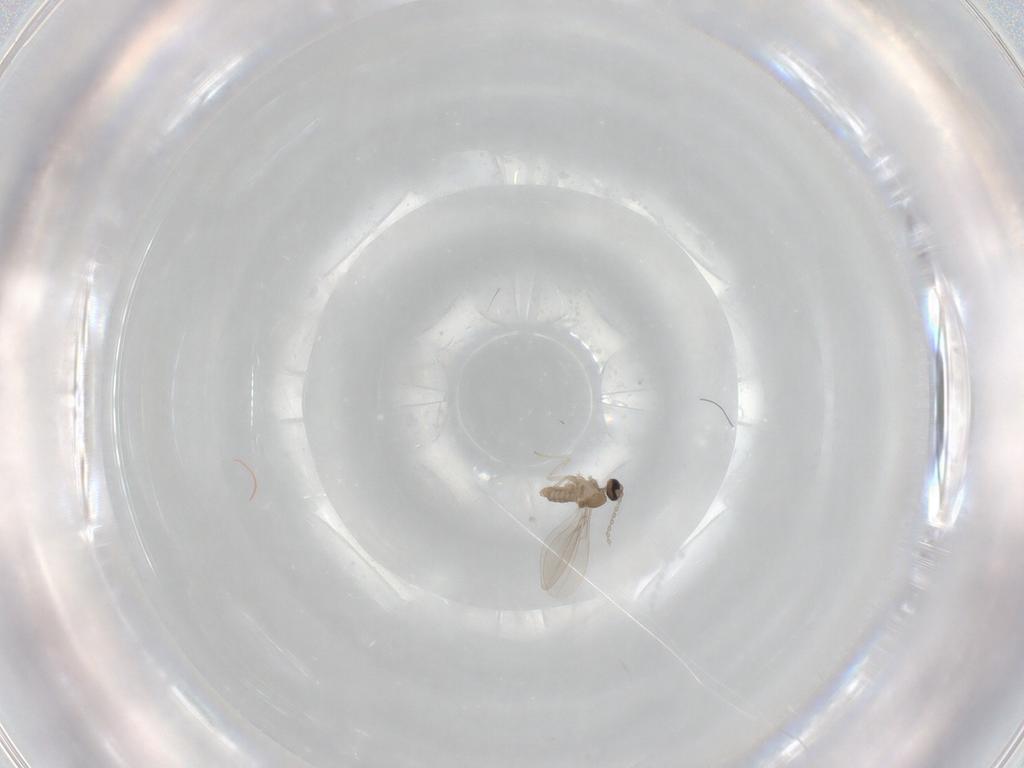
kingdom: Animalia
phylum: Arthropoda
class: Insecta
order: Diptera
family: Cecidomyiidae
